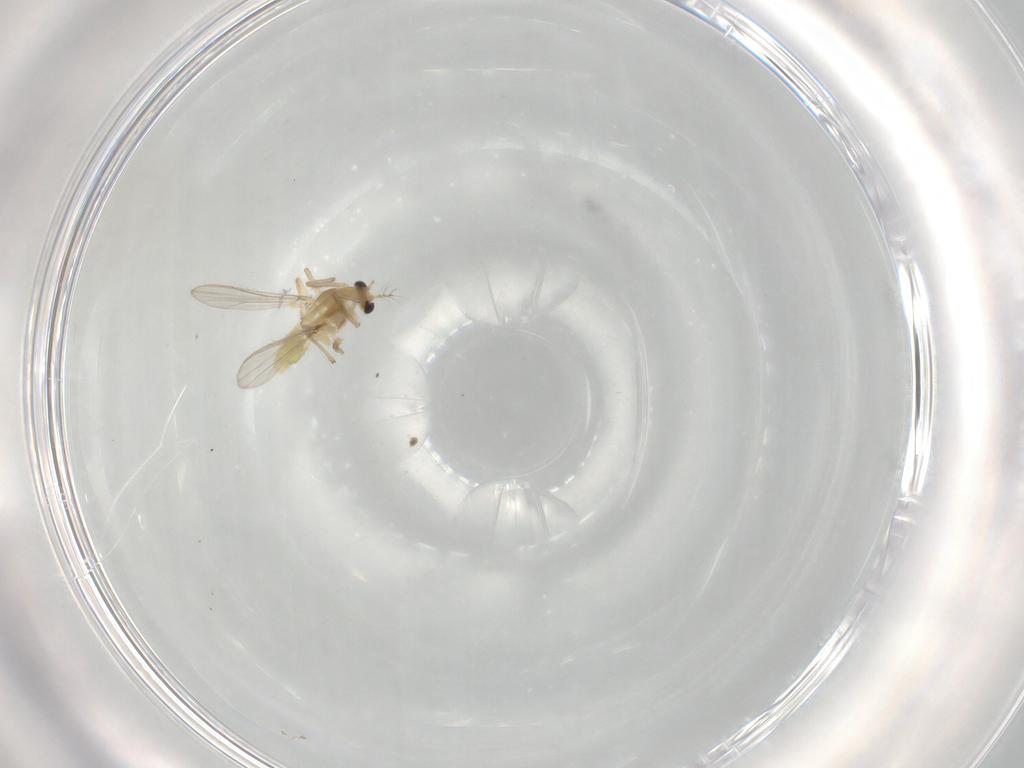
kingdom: Animalia
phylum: Arthropoda
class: Insecta
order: Diptera
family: Chironomidae
